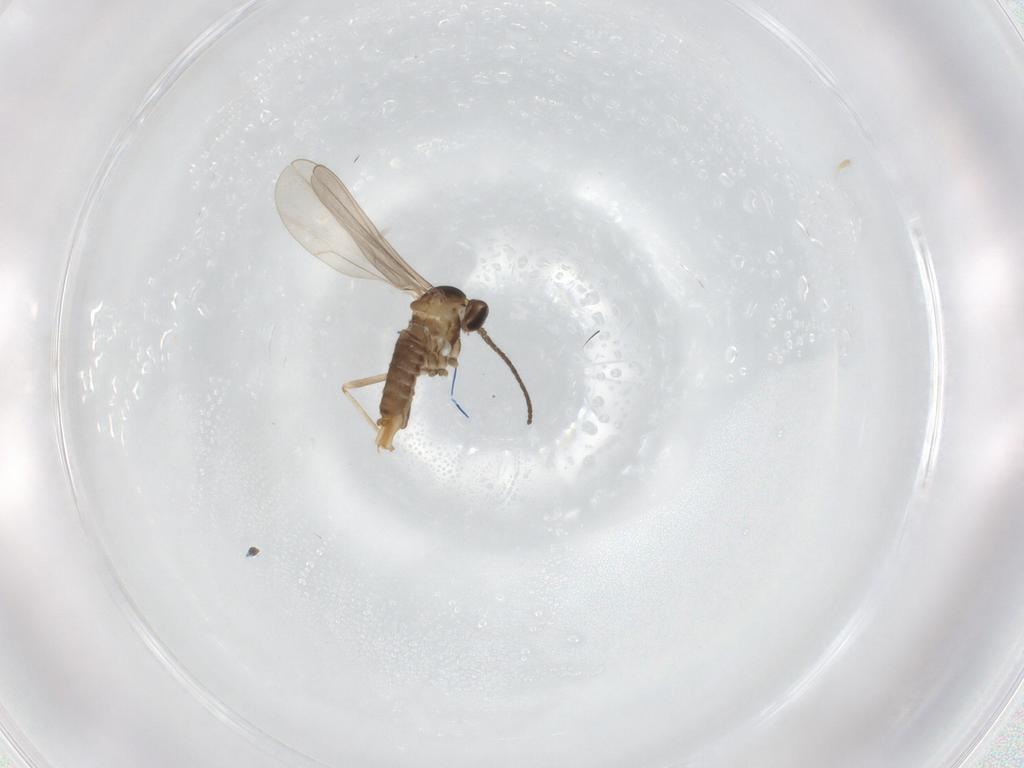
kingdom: Animalia
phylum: Arthropoda
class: Insecta
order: Diptera
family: Cecidomyiidae
